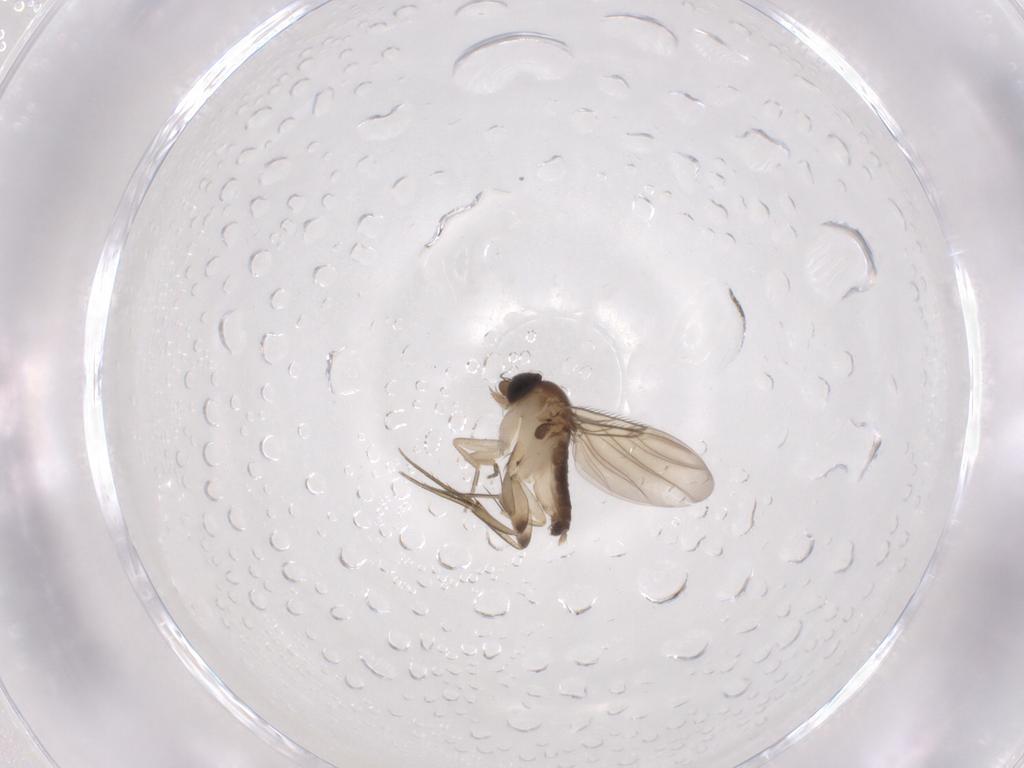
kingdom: Animalia
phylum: Arthropoda
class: Insecta
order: Diptera
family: Phoridae
